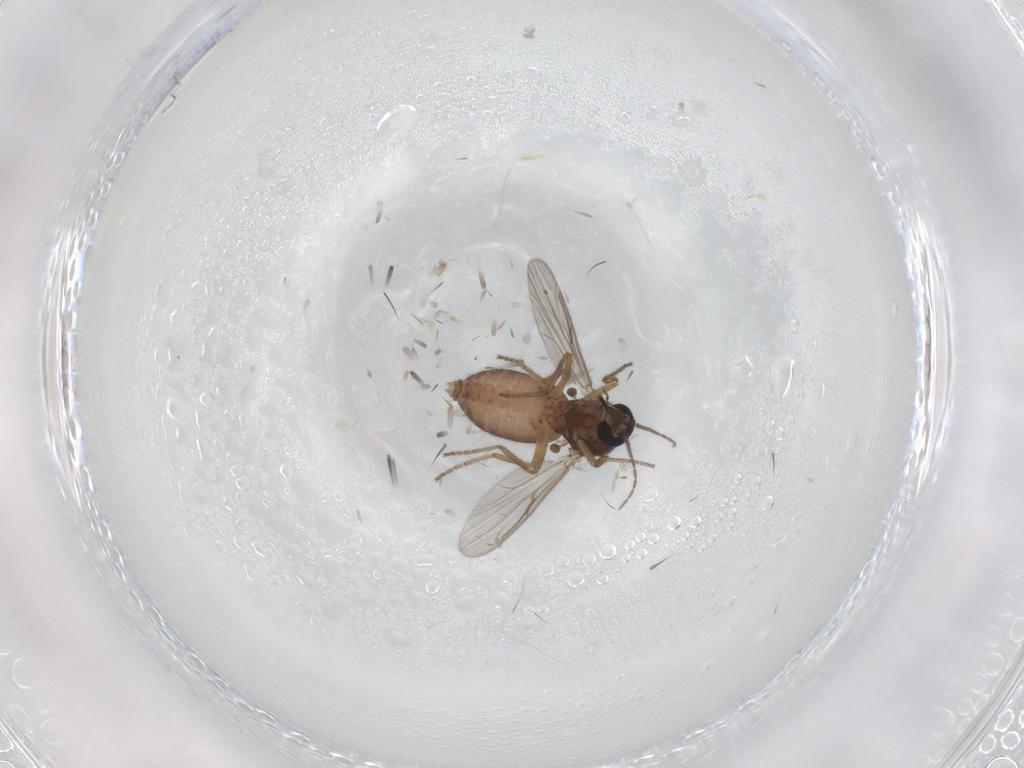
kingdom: Animalia
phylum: Arthropoda
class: Insecta
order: Diptera
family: Ceratopogonidae
